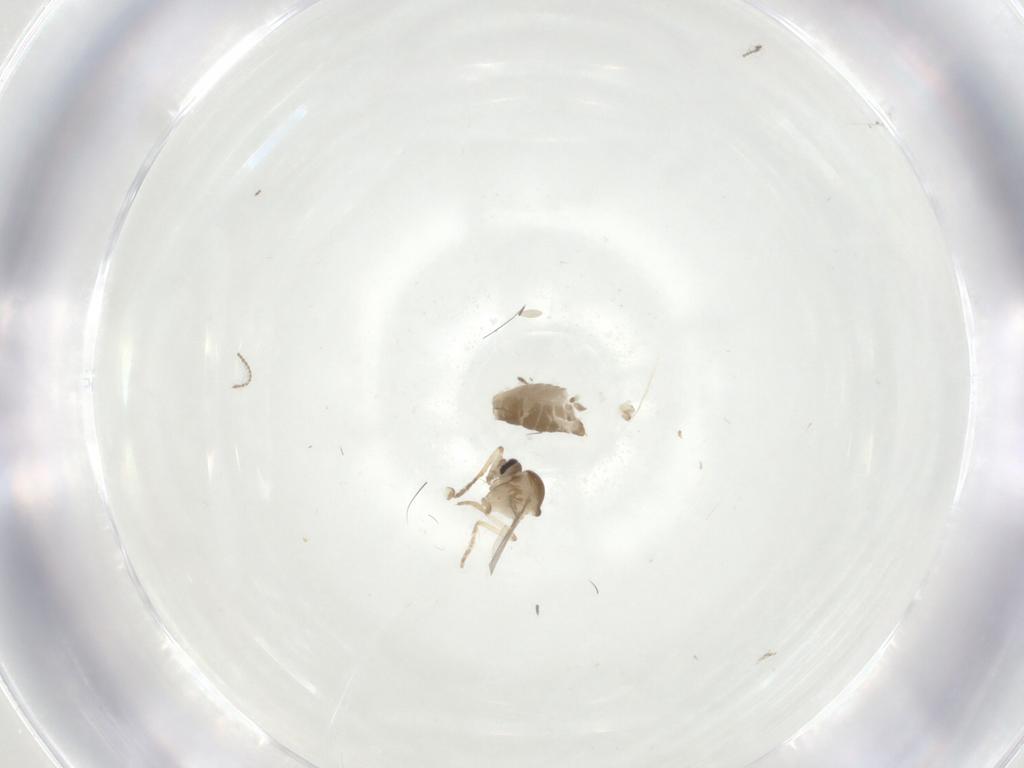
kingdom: Animalia
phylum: Arthropoda
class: Insecta
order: Diptera
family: Ceratopogonidae
